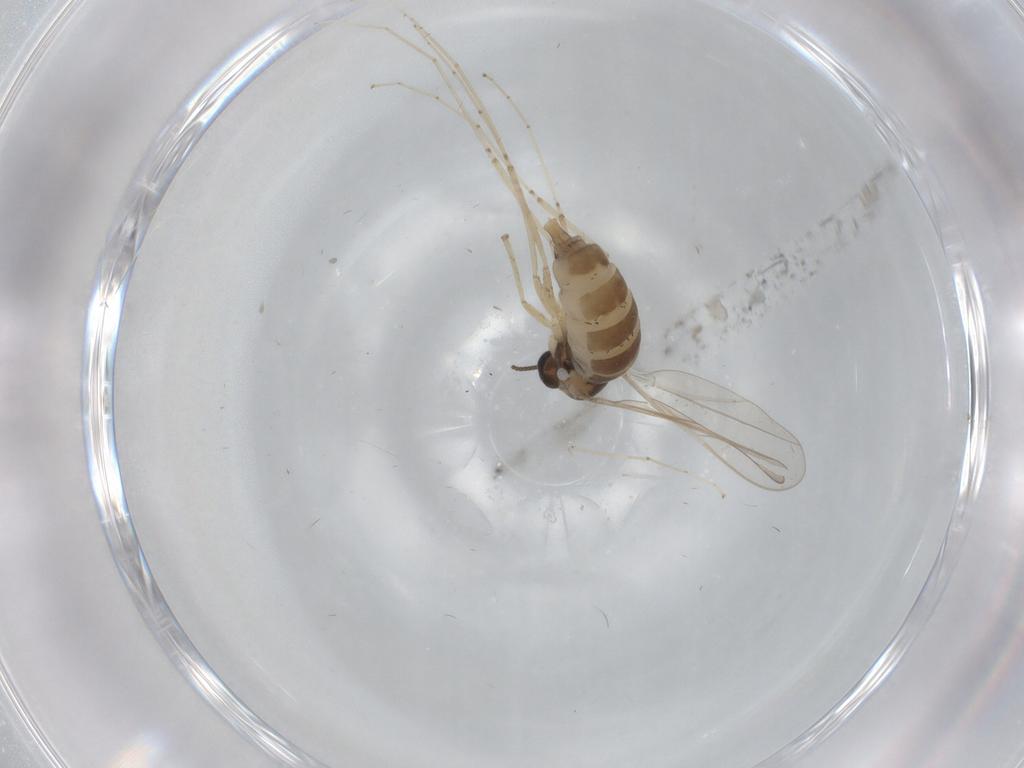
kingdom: Animalia
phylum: Arthropoda
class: Insecta
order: Diptera
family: Cecidomyiidae
